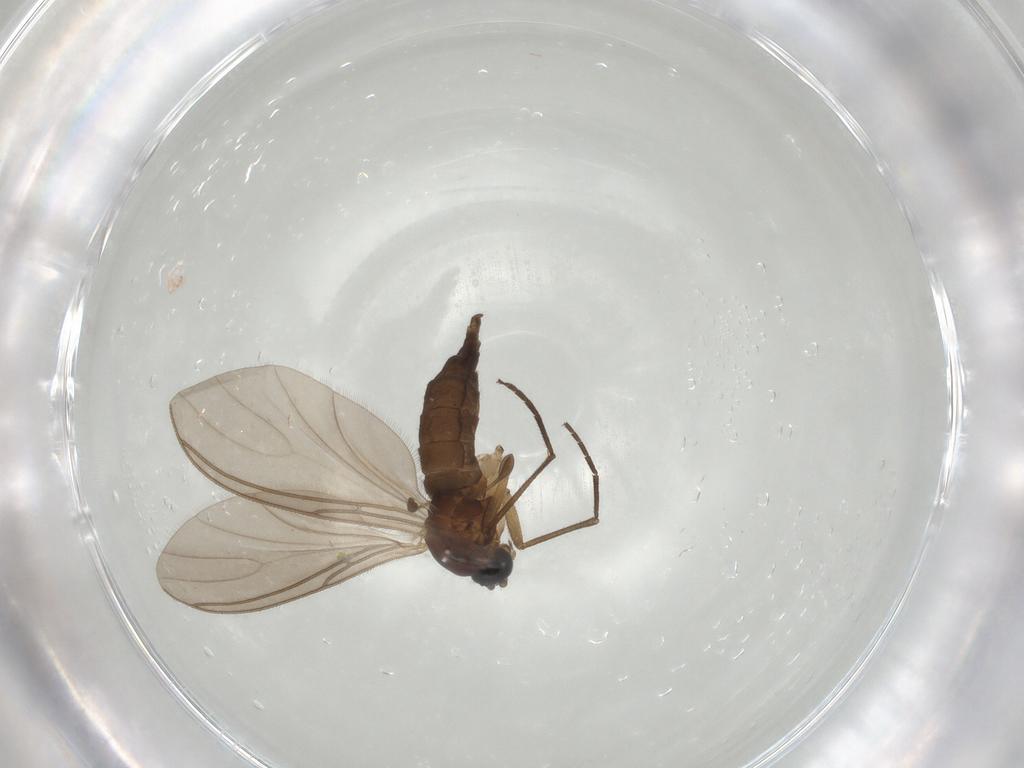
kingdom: Animalia
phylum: Arthropoda
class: Insecta
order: Diptera
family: Sciaridae
